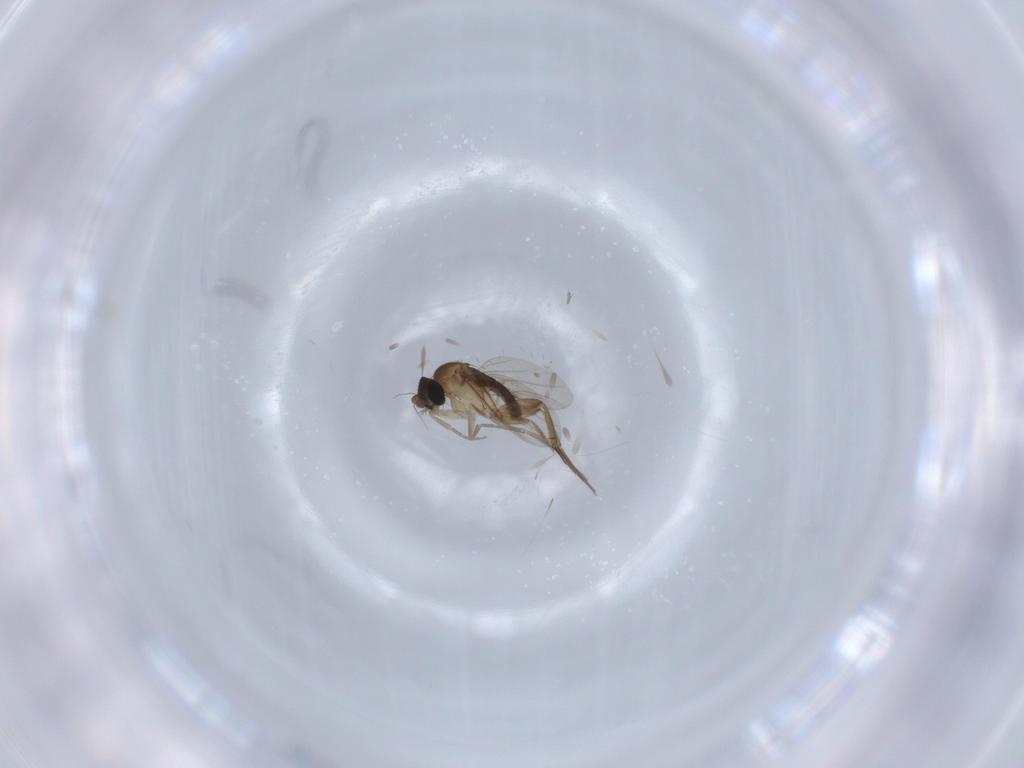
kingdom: Animalia
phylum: Arthropoda
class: Insecta
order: Diptera
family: Phoridae
